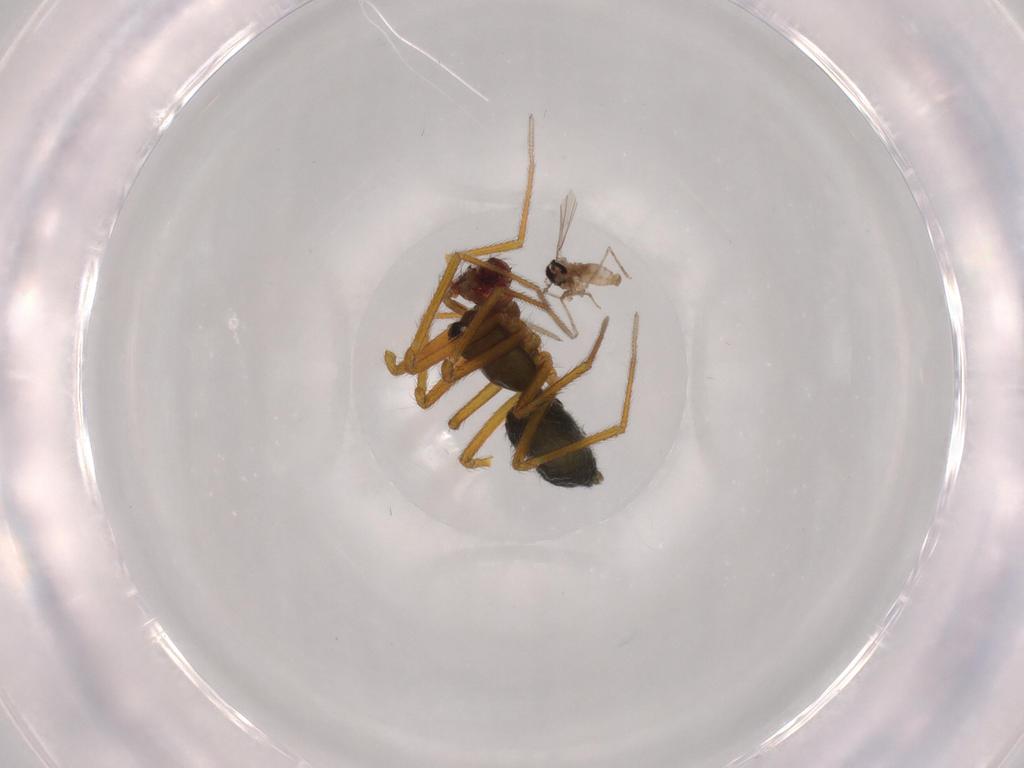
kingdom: Animalia
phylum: Arthropoda
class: Arachnida
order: Araneae
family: Linyphiidae
